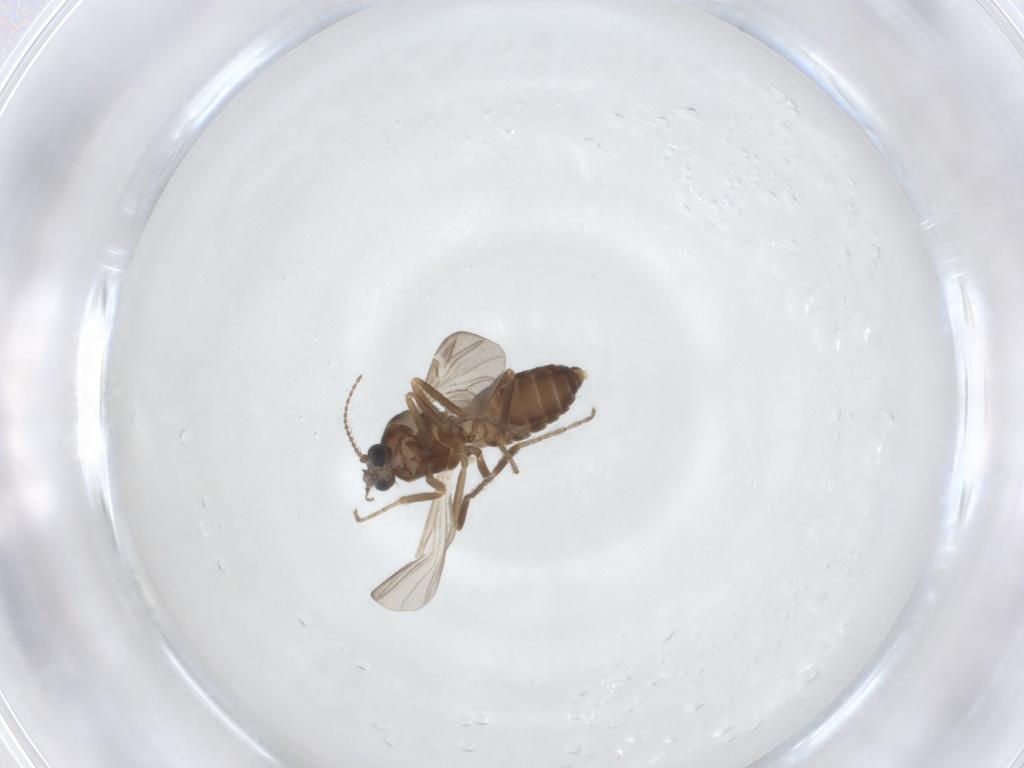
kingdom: Animalia
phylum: Arthropoda
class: Insecta
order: Diptera
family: Ceratopogonidae
